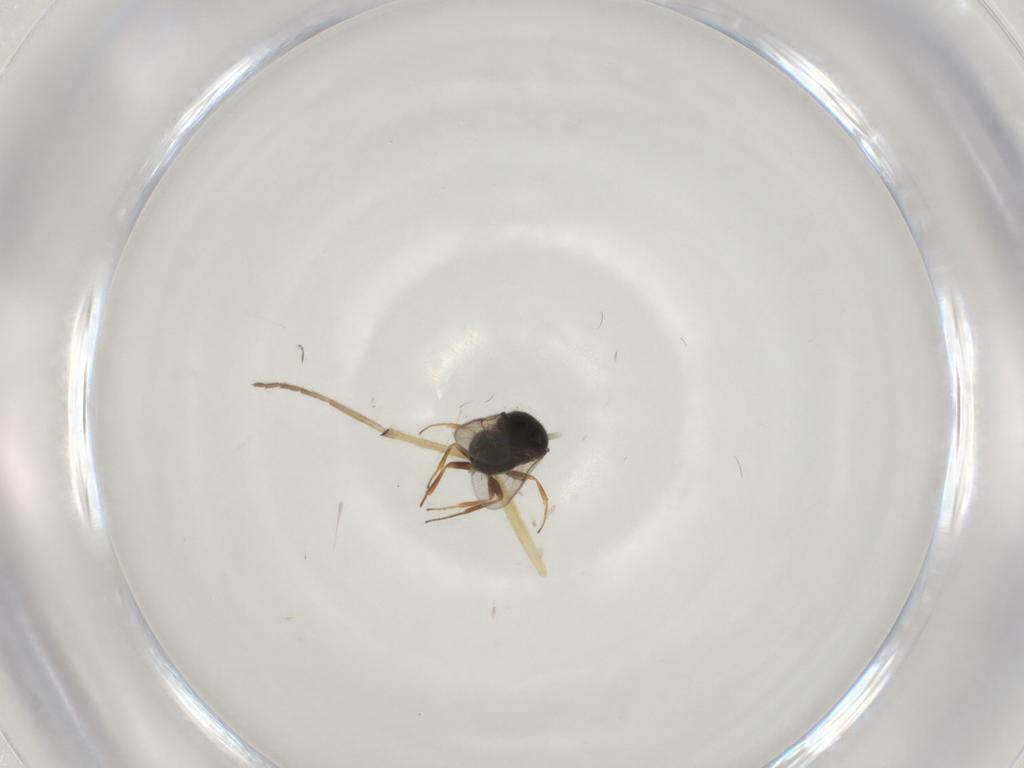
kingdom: Animalia
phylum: Arthropoda
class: Insecta
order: Hymenoptera
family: Scelionidae
